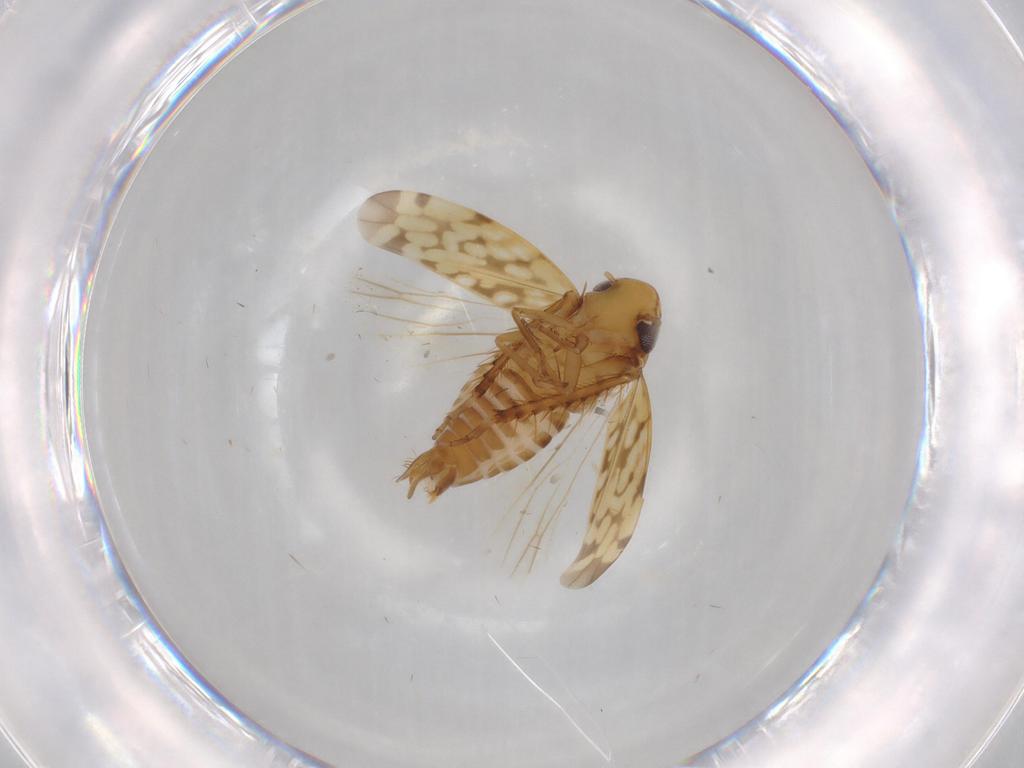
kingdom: Animalia
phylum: Arthropoda
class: Insecta
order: Hemiptera
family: Cicadellidae
